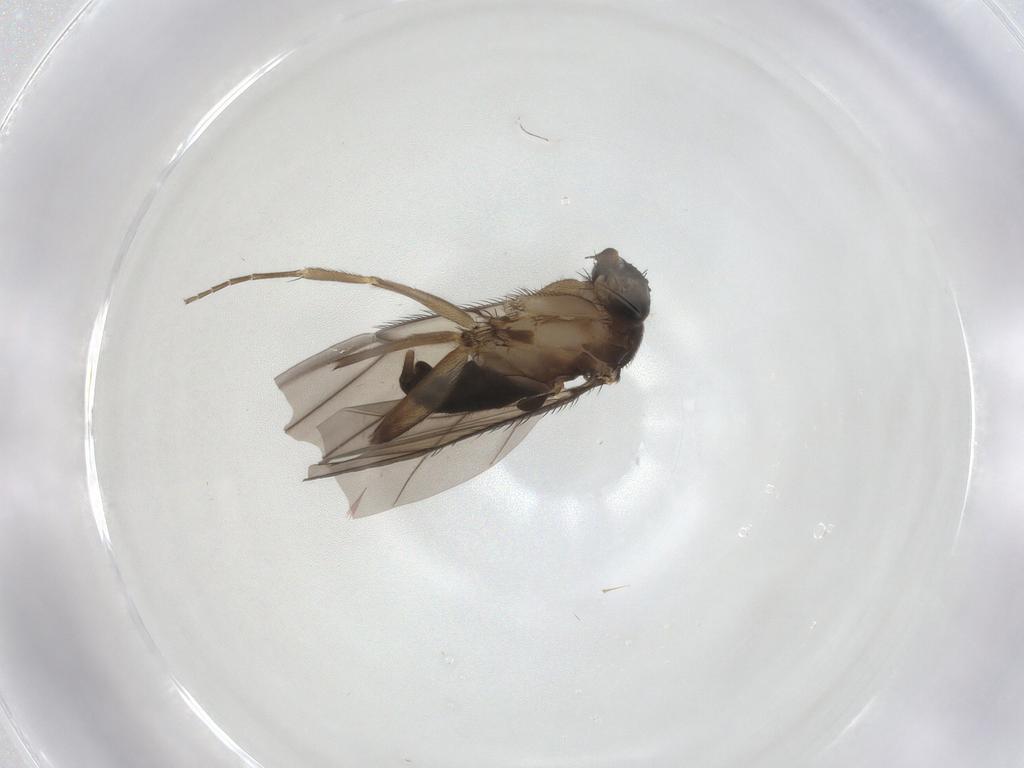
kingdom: Animalia
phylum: Arthropoda
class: Insecta
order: Diptera
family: Phoridae
